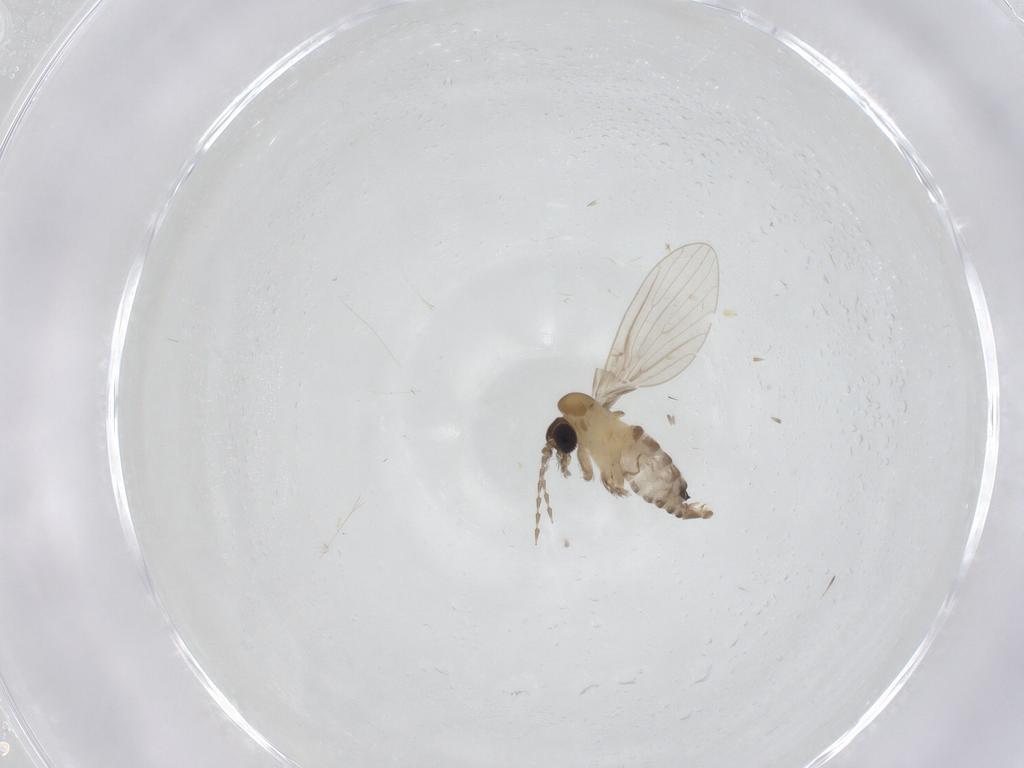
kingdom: Animalia
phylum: Arthropoda
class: Insecta
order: Diptera
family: Psychodidae
